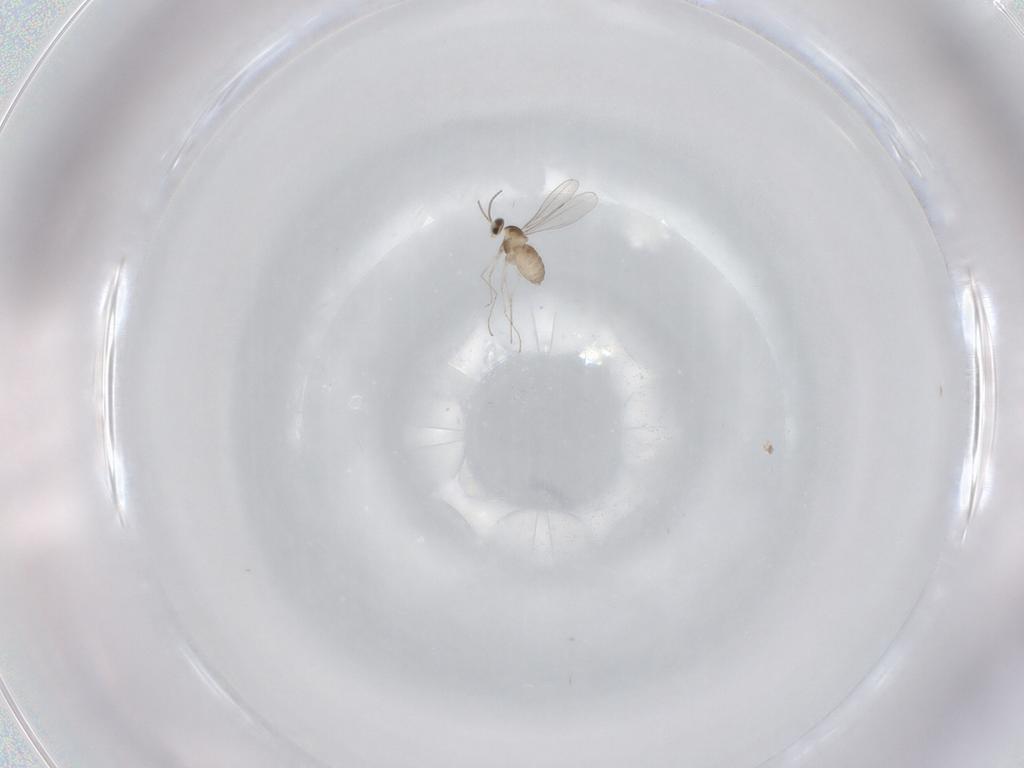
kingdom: Animalia
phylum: Arthropoda
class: Insecta
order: Diptera
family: Cecidomyiidae
